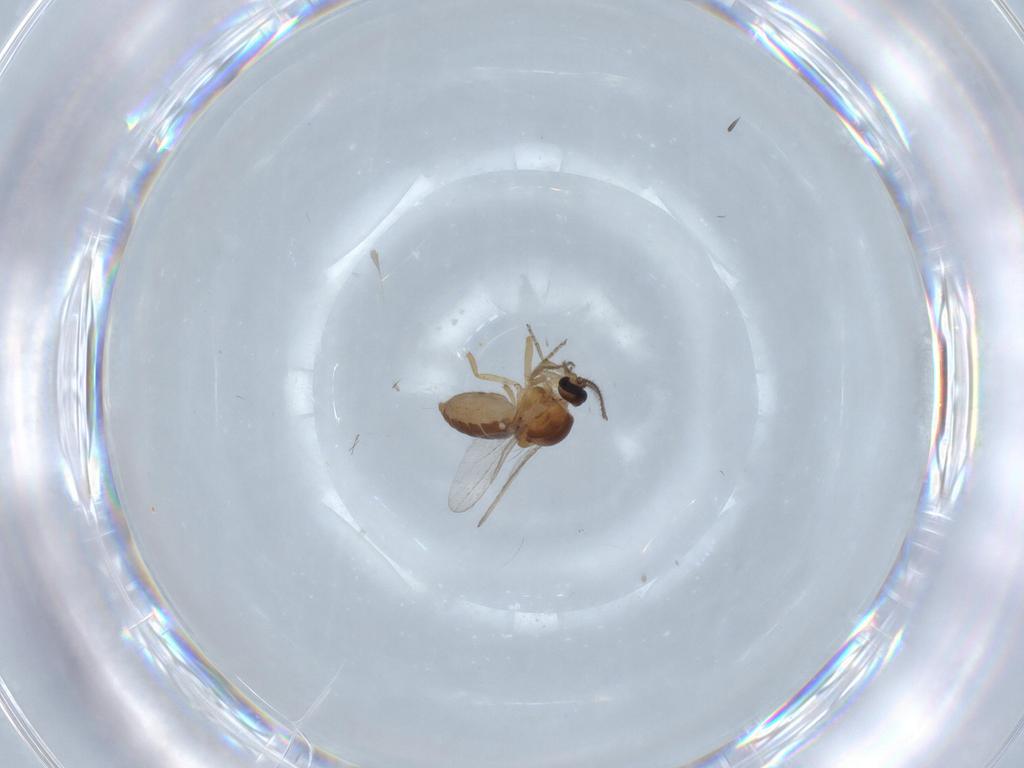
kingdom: Animalia
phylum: Arthropoda
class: Insecta
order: Diptera
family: Ceratopogonidae
